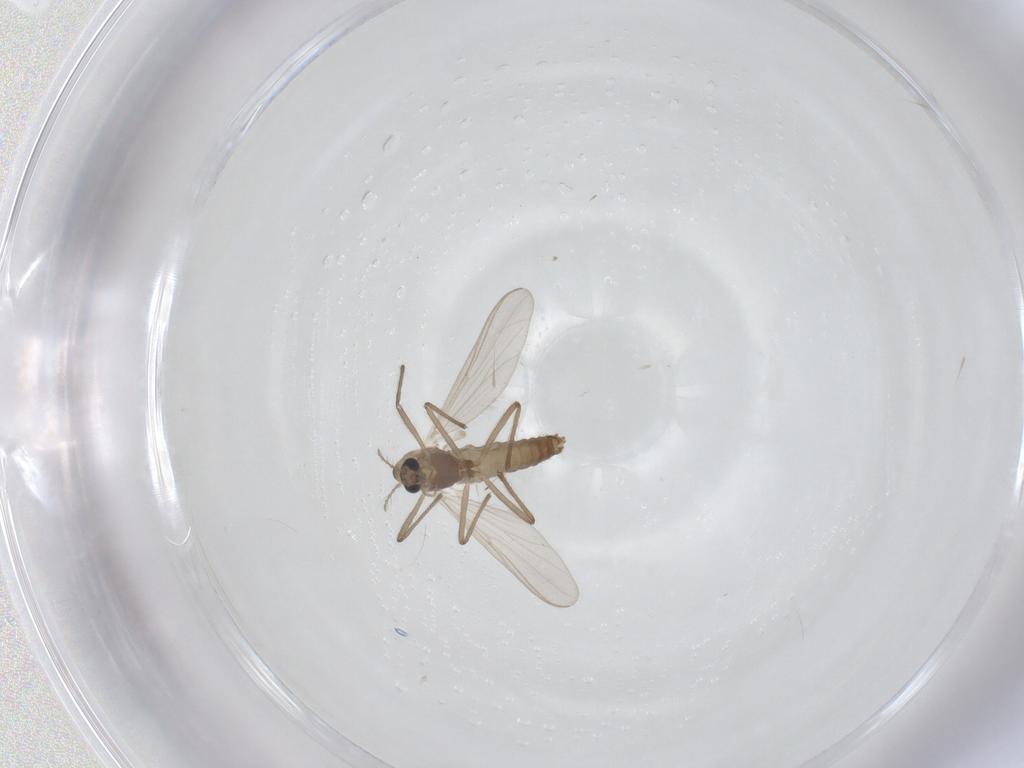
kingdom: Animalia
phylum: Arthropoda
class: Insecta
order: Diptera
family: Chironomidae
